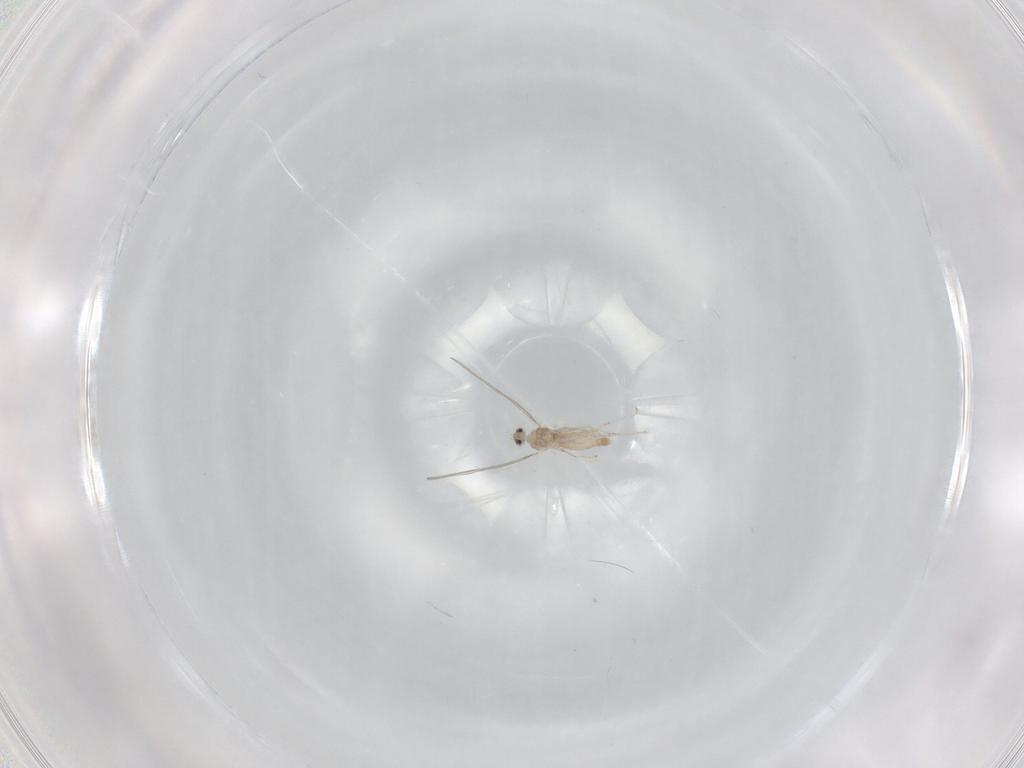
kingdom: Animalia
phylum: Arthropoda
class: Insecta
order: Diptera
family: Cecidomyiidae
